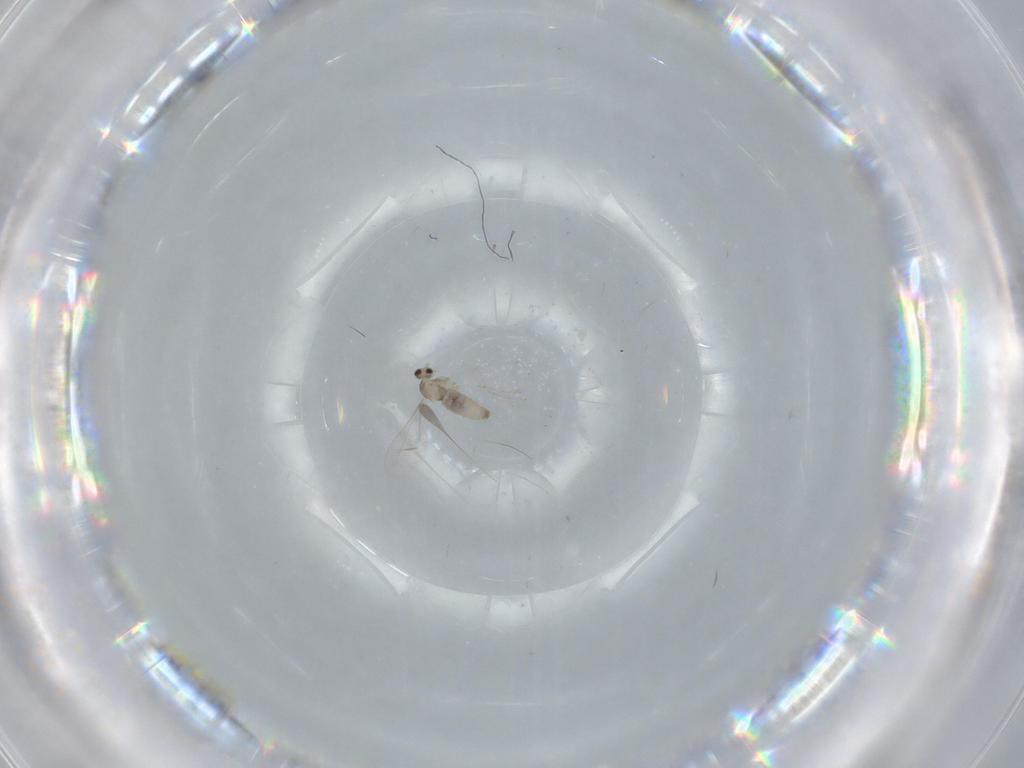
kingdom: Animalia
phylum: Arthropoda
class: Insecta
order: Diptera
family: Cecidomyiidae
